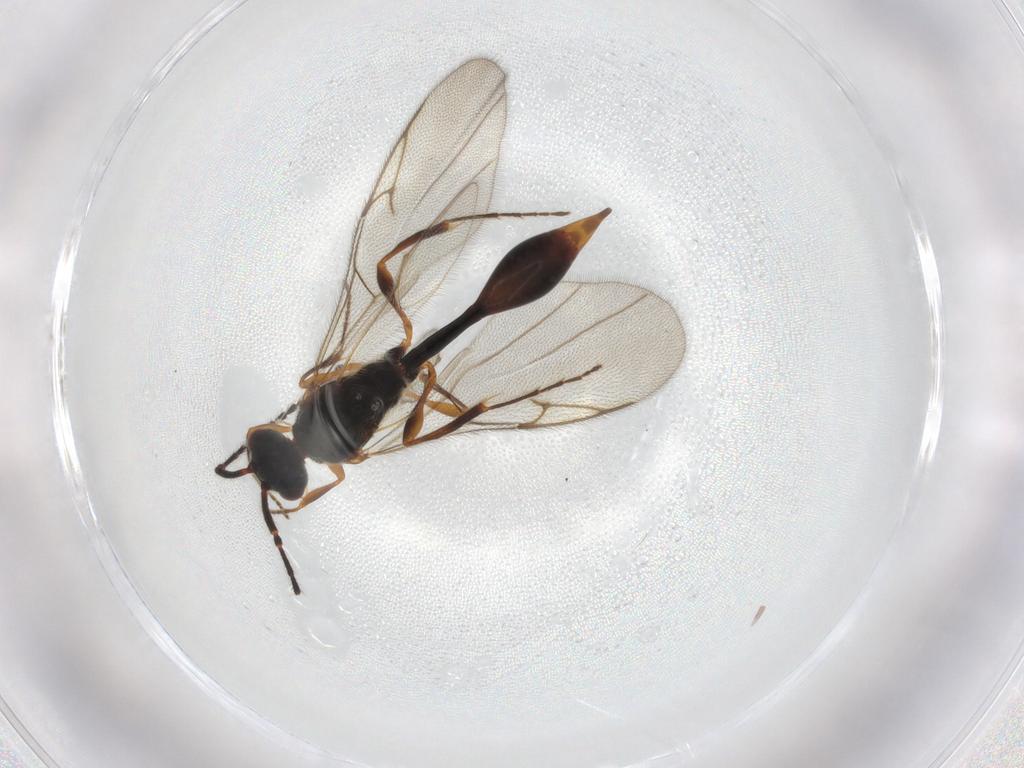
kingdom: Animalia
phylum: Arthropoda
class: Insecta
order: Hymenoptera
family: Diapriidae
